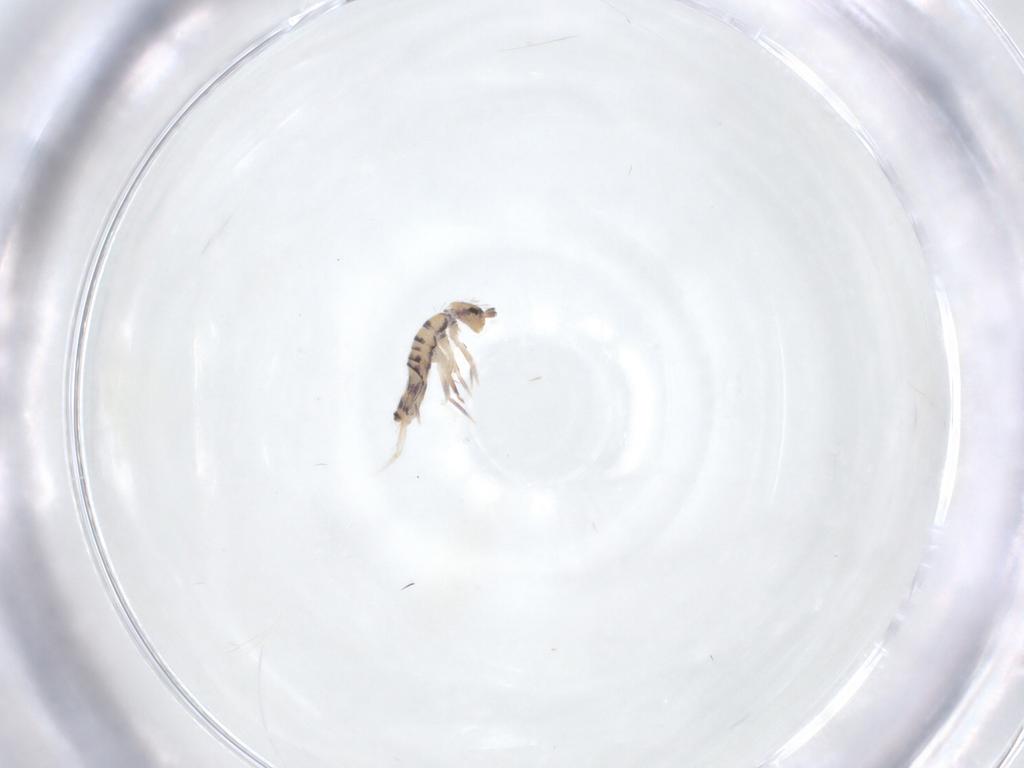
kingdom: Animalia
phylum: Arthropoda
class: Collembola
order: Entomobryomorpha
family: Entomobryidae
